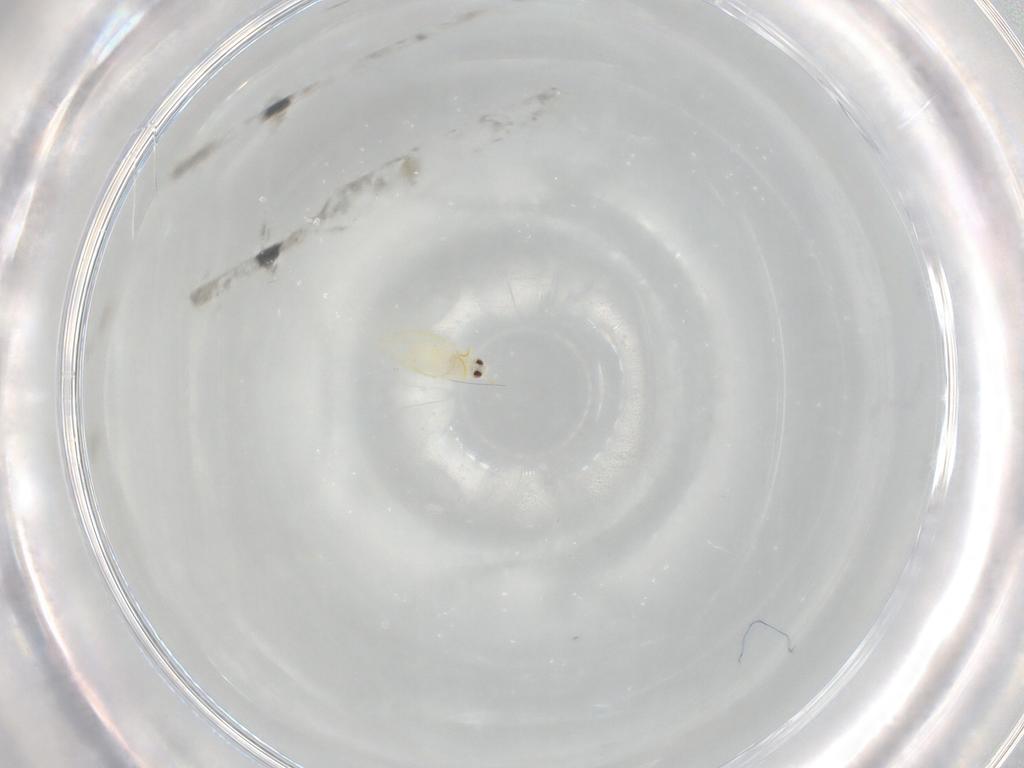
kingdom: Animalia
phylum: Arthropoda
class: Insecta
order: Hemiptera
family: Aleyrodidae
